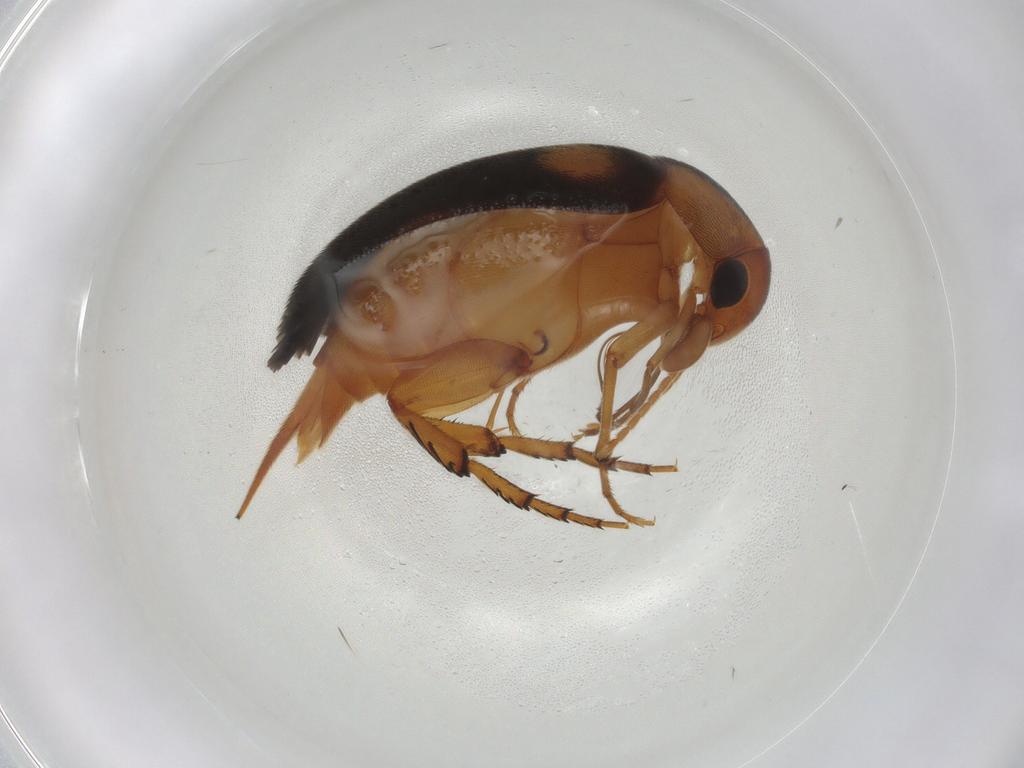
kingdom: Animalia
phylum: Arthropoda
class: Insecta
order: Coleoptera
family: Mordellidae
